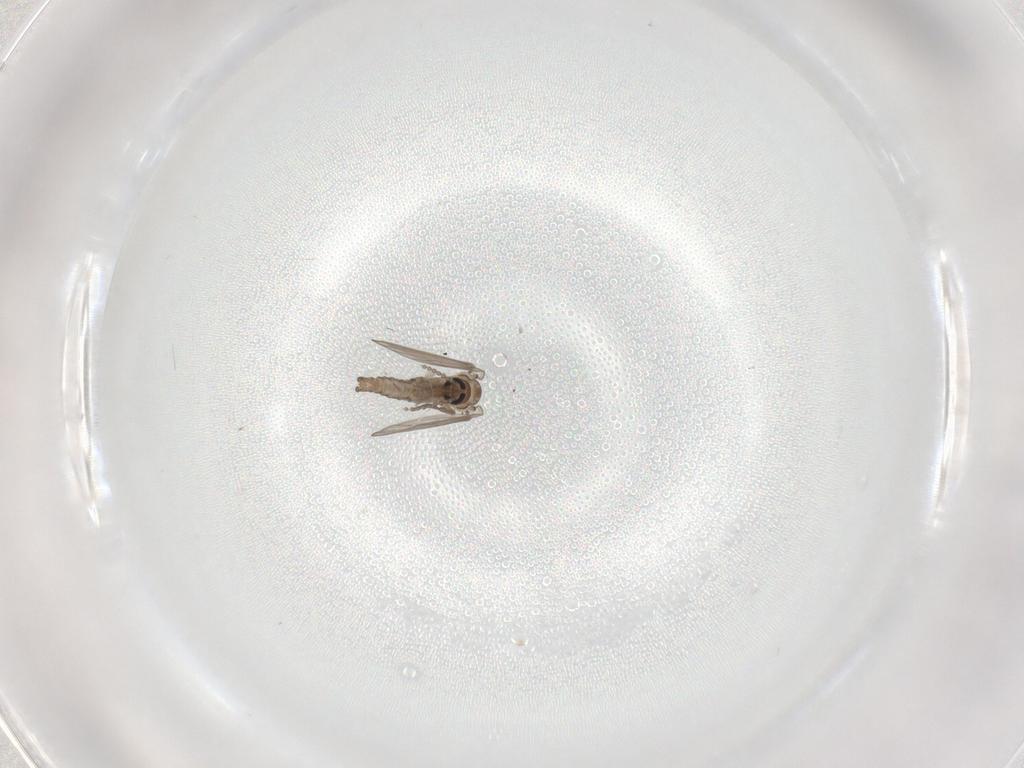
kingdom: Animalia
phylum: Arthropoda
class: Insecta
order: Diptera
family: Psychodidae
